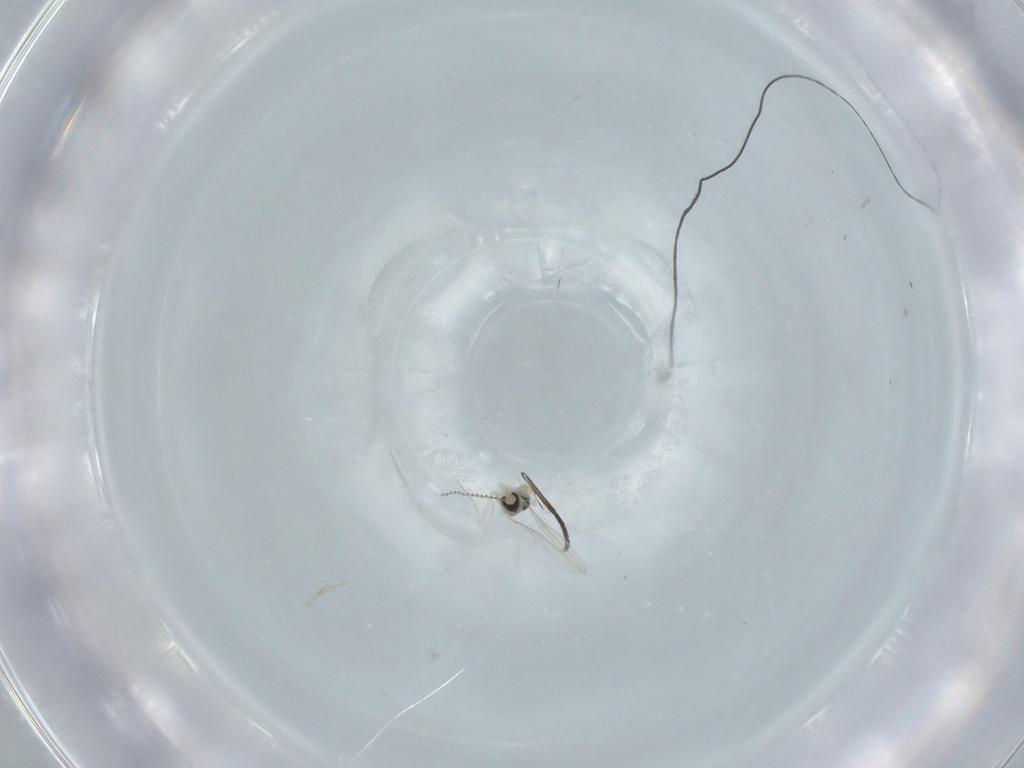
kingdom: Animalia
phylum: Arthropoda
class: Insecta
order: Diptera
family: Cecidomyiidae
